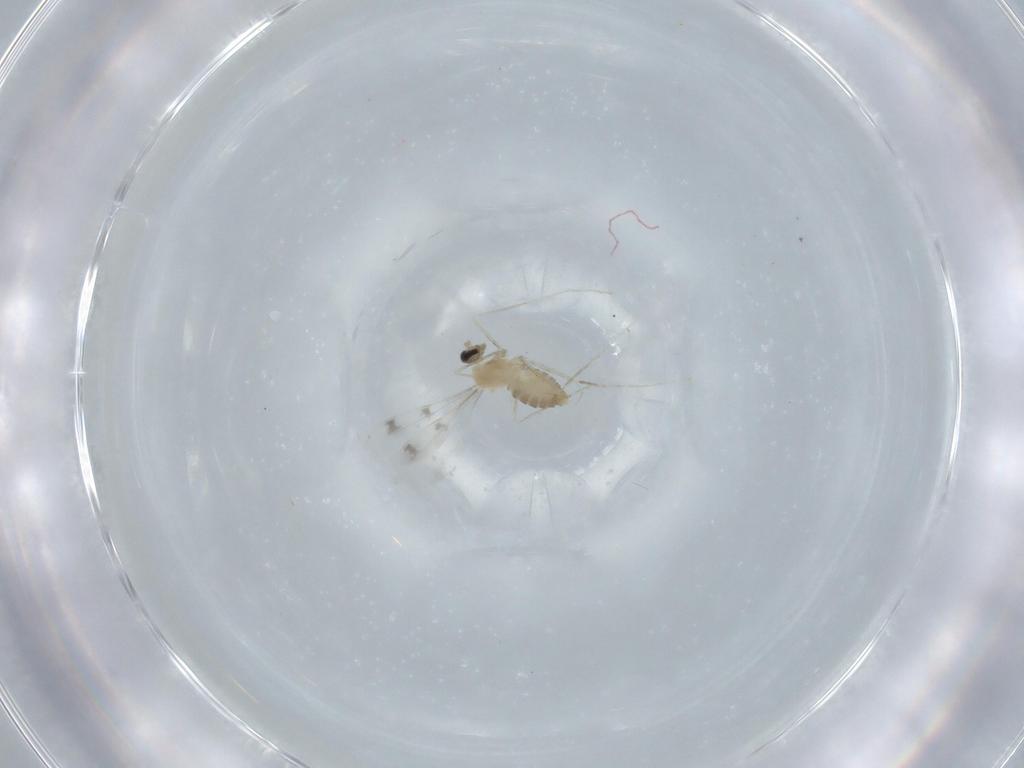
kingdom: Animalia
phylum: Arthropoda
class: Insecta
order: Diptera
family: Cecidomyiidae
